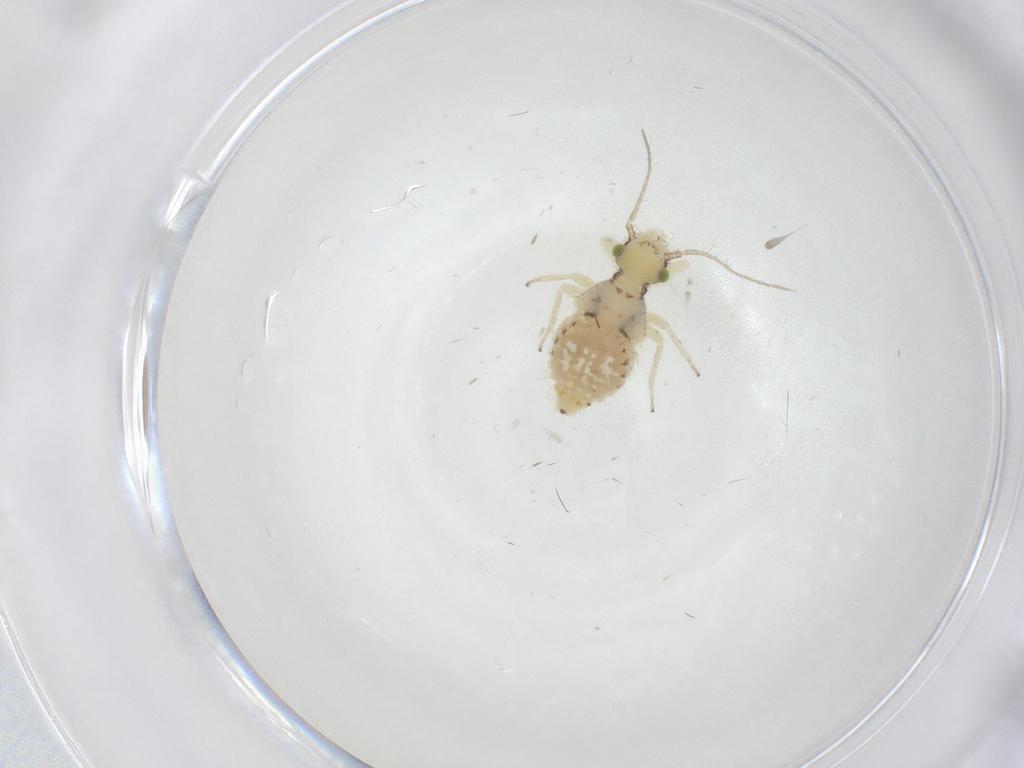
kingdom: Animalia
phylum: Arthropoda
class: Insecta
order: Psocodea
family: Pseudocaeciliidae
